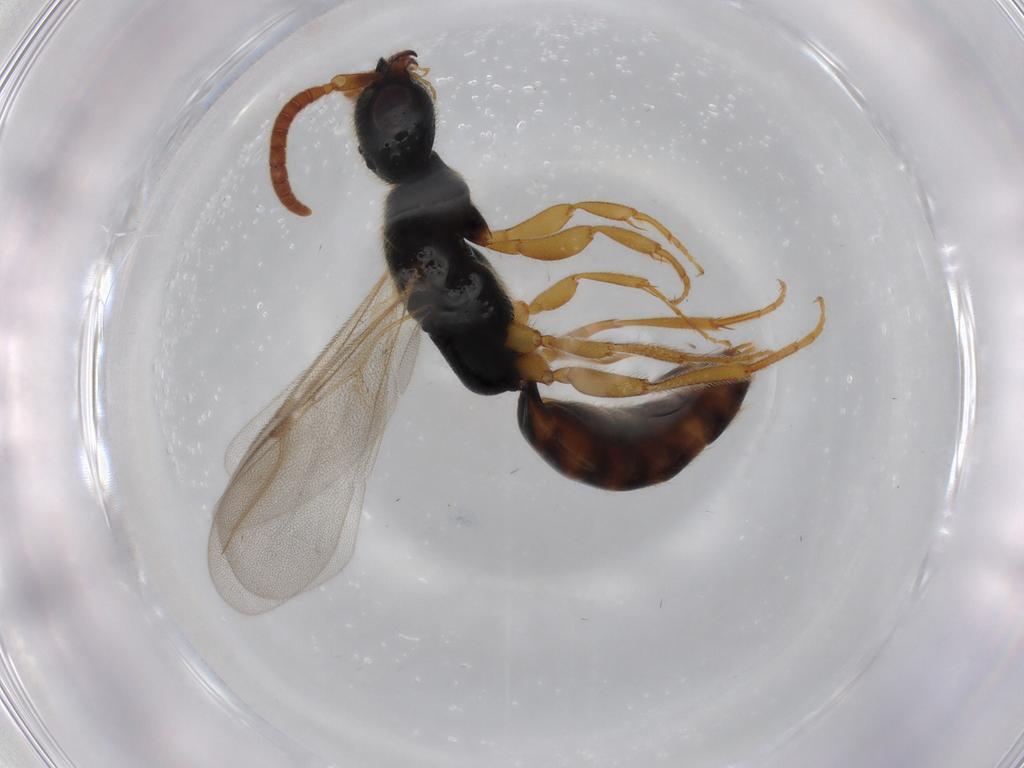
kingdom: Animalia
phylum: Arthropoda
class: Insecta
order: Hymenoptera
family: Bethylidae
